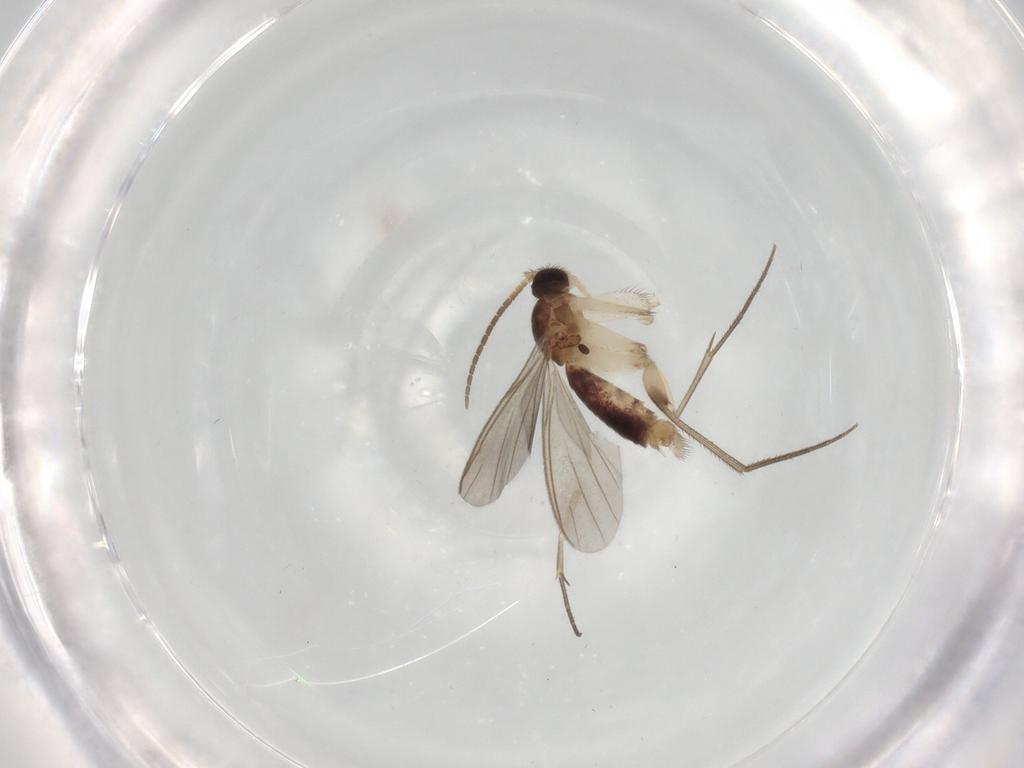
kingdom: Animalia
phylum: Arthropoda
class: Insecta
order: Diptera
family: Mycetophilidae
